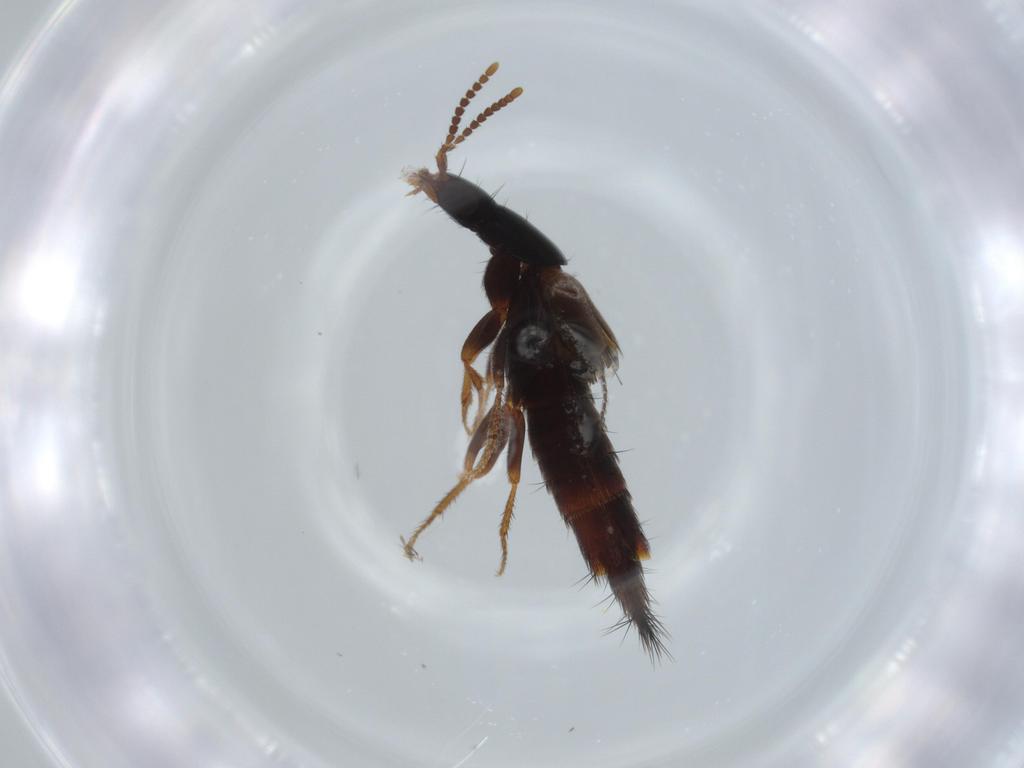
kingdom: Animalia
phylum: Arthropoda
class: Insecta
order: Coleoptera
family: Staphylinidae
